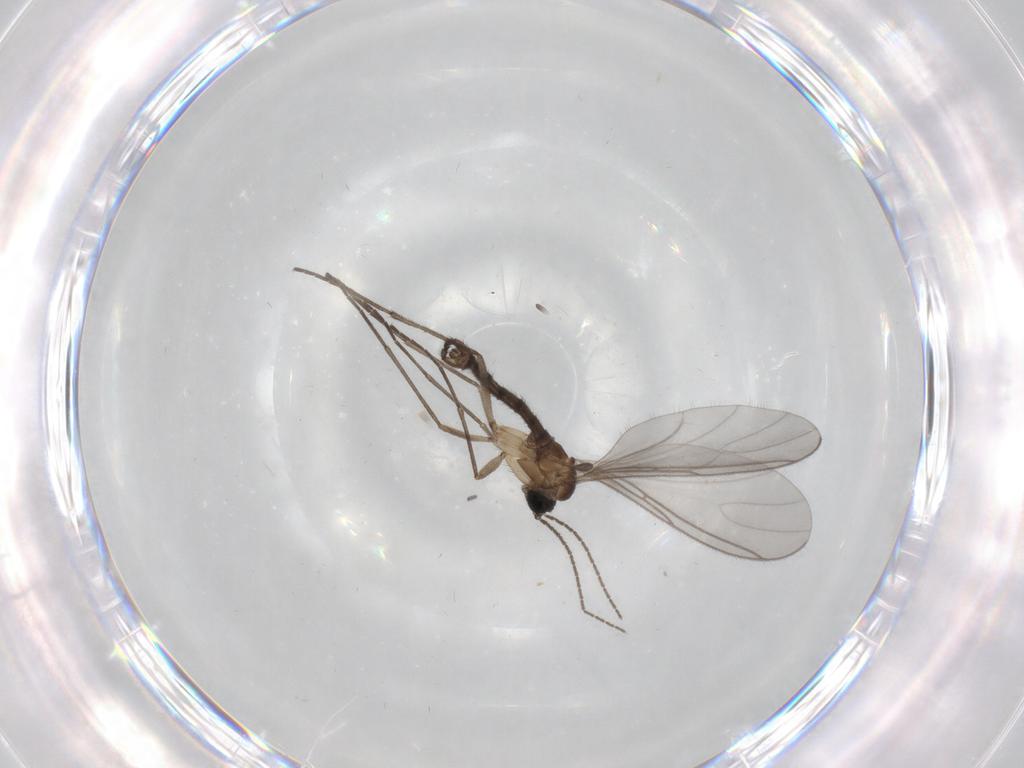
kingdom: Animalia
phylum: Arthropoda
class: Insecta
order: Diptera
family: Sciaridae
